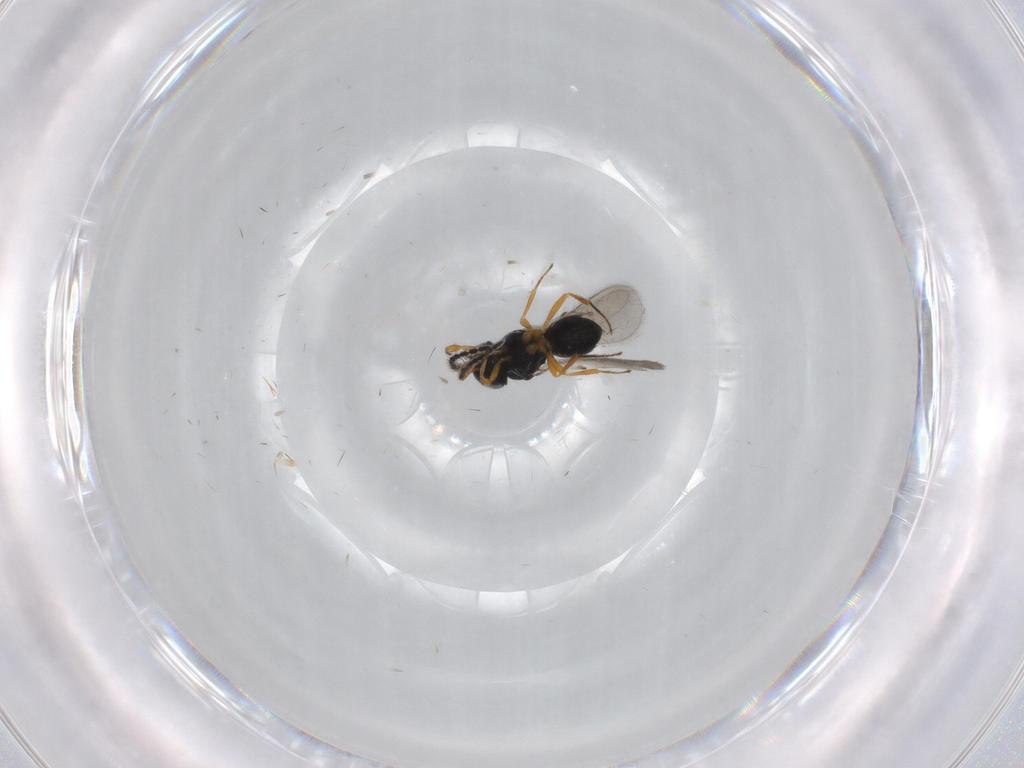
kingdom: Animalia
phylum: Arthropoda
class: Insecta
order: Hymenoptera
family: Scelionidae
